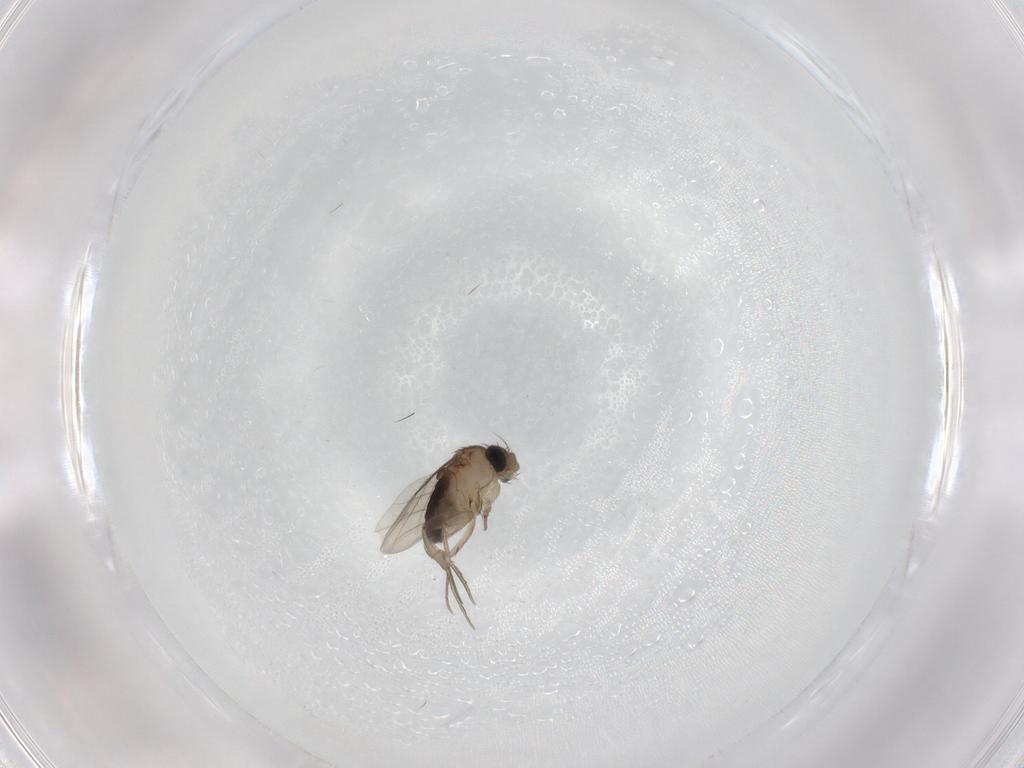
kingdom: Animalia
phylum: Arthropoda
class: Insecta
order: Diptera
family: Phoridae
